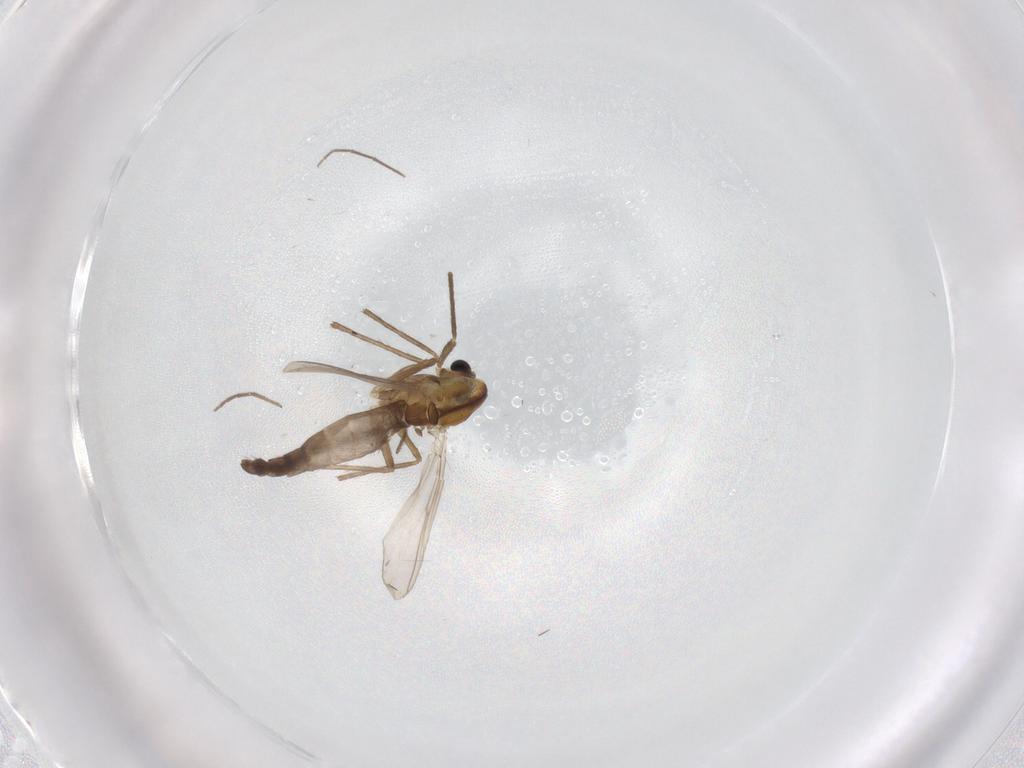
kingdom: Animalia
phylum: Arthropoda
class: Insecta
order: Diptera
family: Chironomidae
